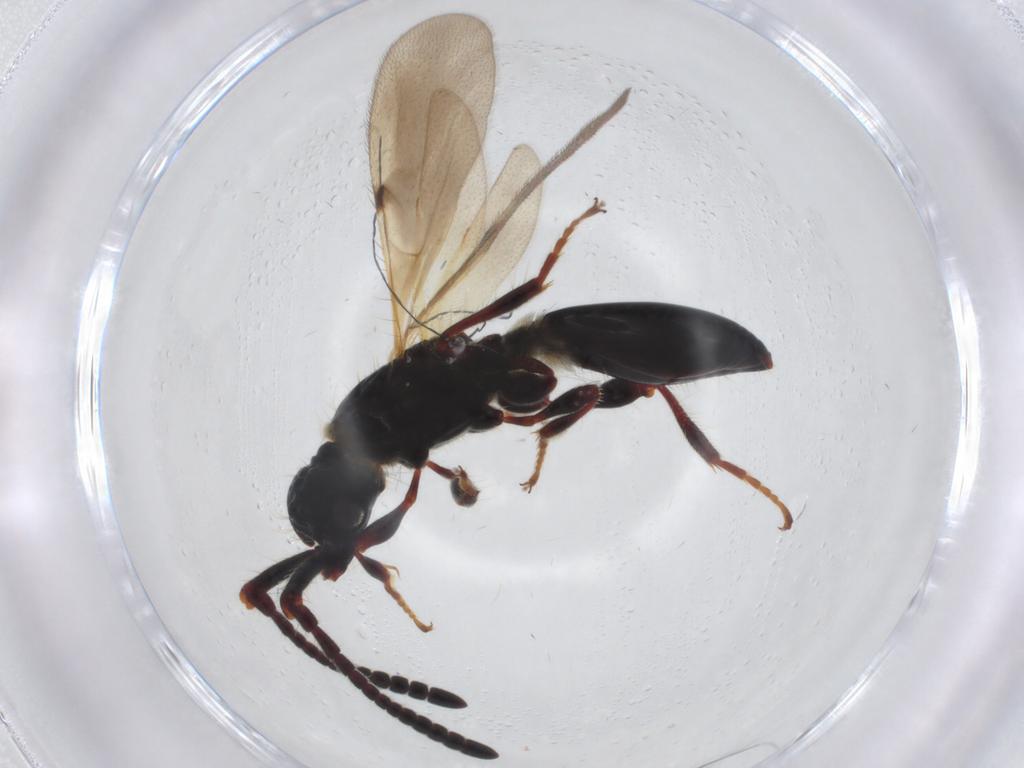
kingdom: Animalia
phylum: Arthropoda
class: Insecta
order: Hymenoptera
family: Diapriidae
